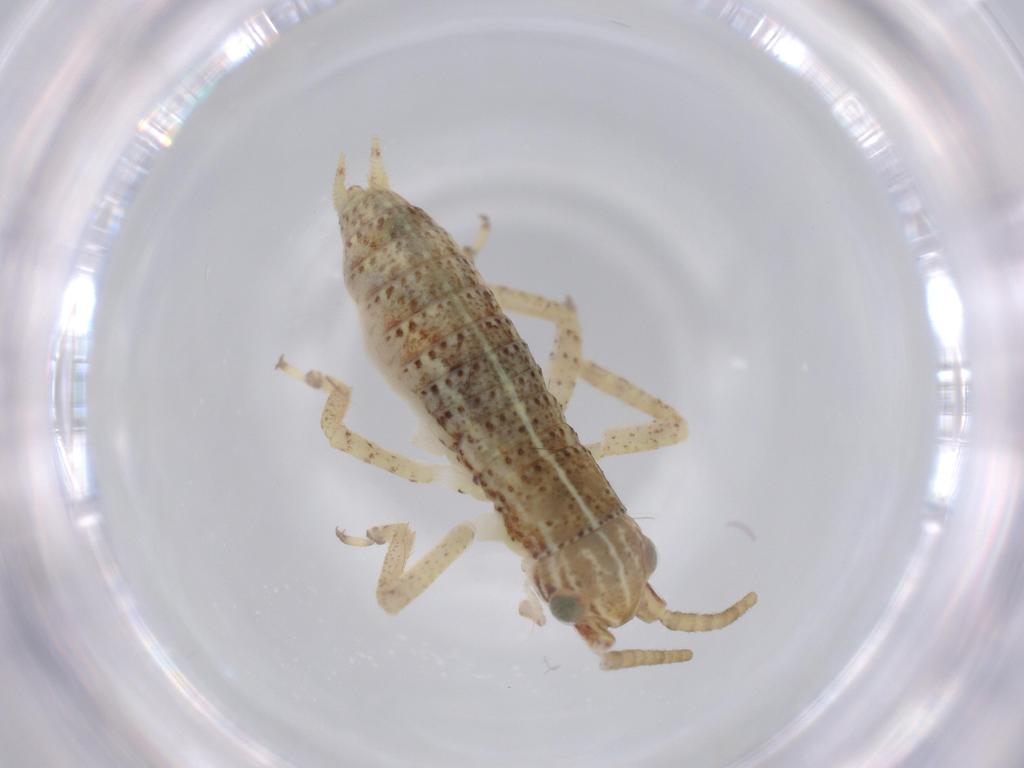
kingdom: Animalia
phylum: Arthropoda
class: Insecta
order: Orthoptera
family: Gryllidae
